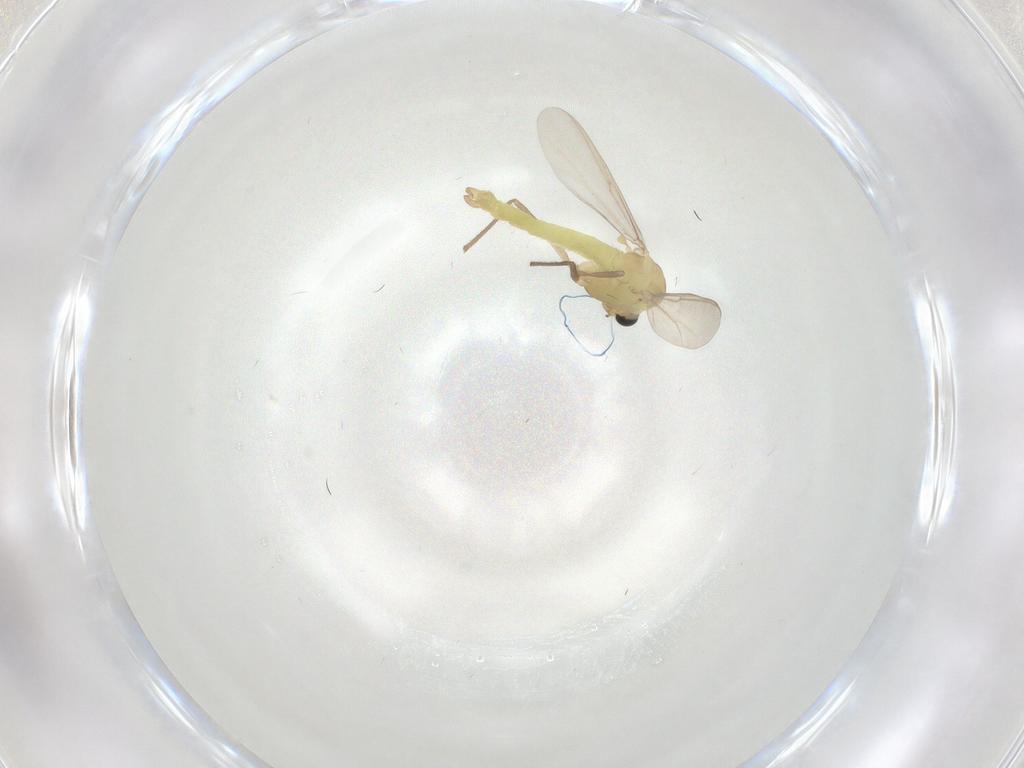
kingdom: Animalia
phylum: Arthropoda
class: Insecta
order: Diptera
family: Chironomidae
